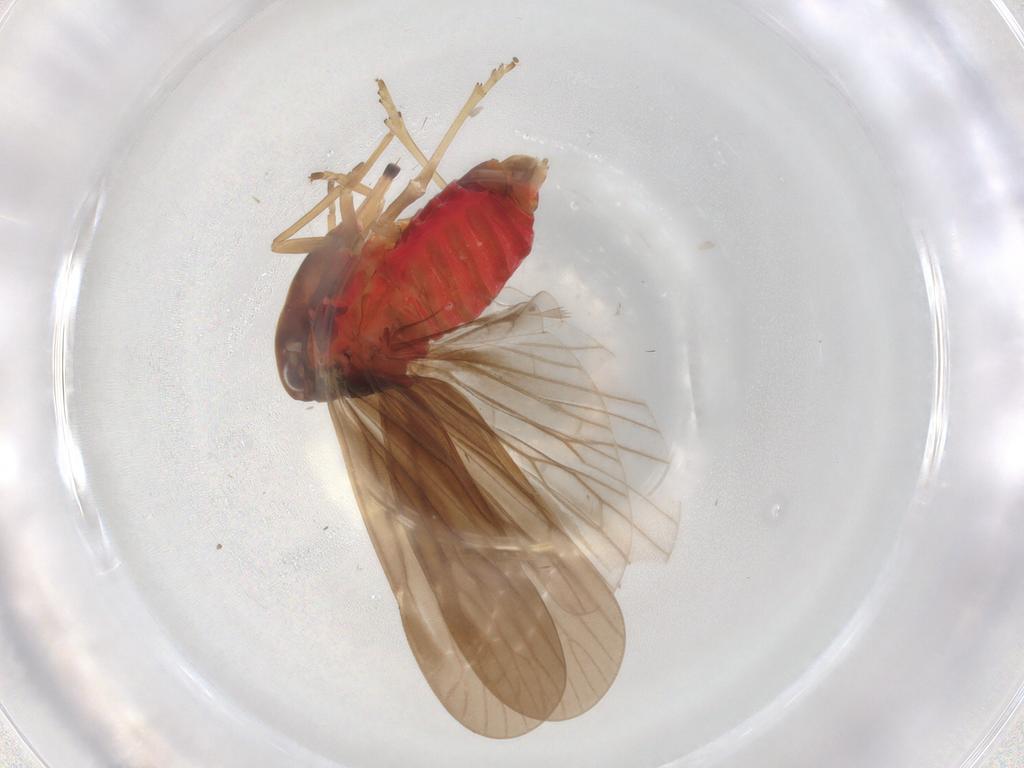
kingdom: Animalia
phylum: Arthropoda
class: Insecta
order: Hemiptera
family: Derbidae
